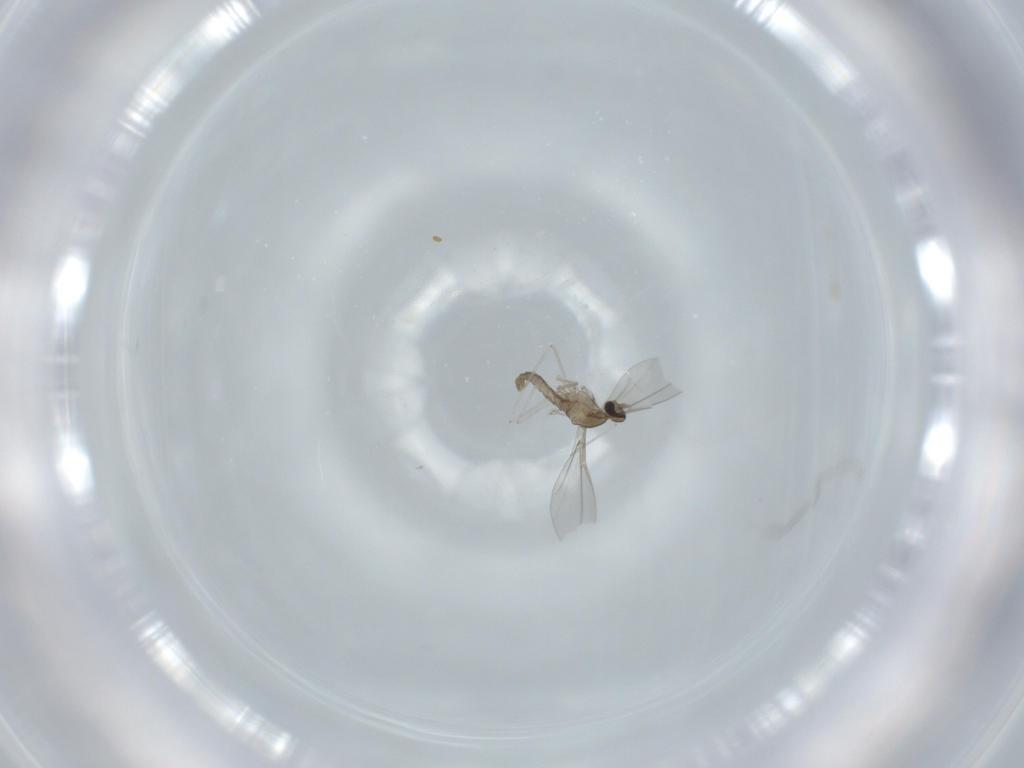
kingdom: Animalia
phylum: Arthropoda
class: Insecta
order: Diptera
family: Cecidomyiidae
